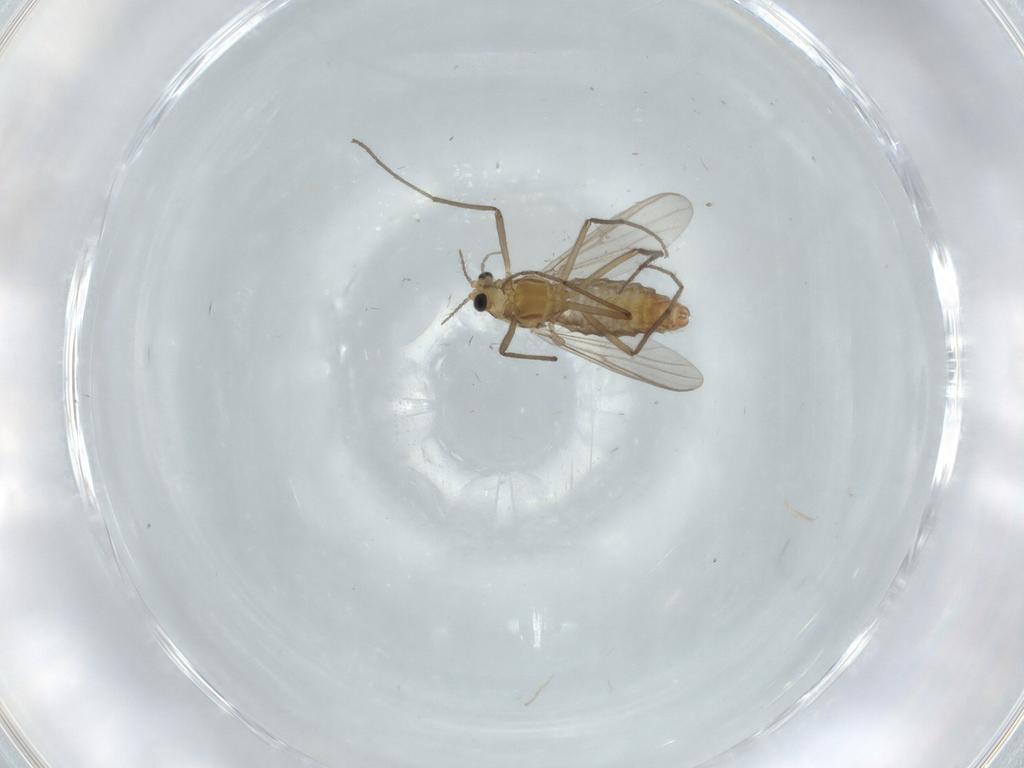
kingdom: Animalia
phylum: Arthropoda
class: Insecta
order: Diptera
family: Chironomidae
